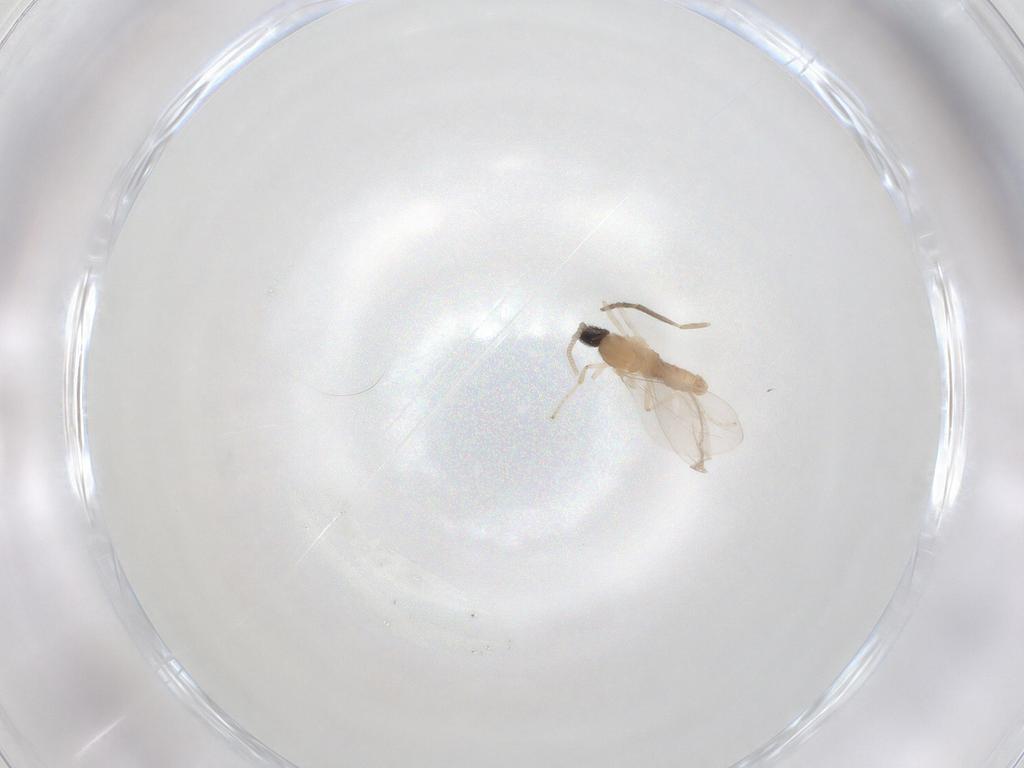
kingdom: Animalia
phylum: Arthropoda
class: Insecta
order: Diptera
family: Cecidomyiidae
